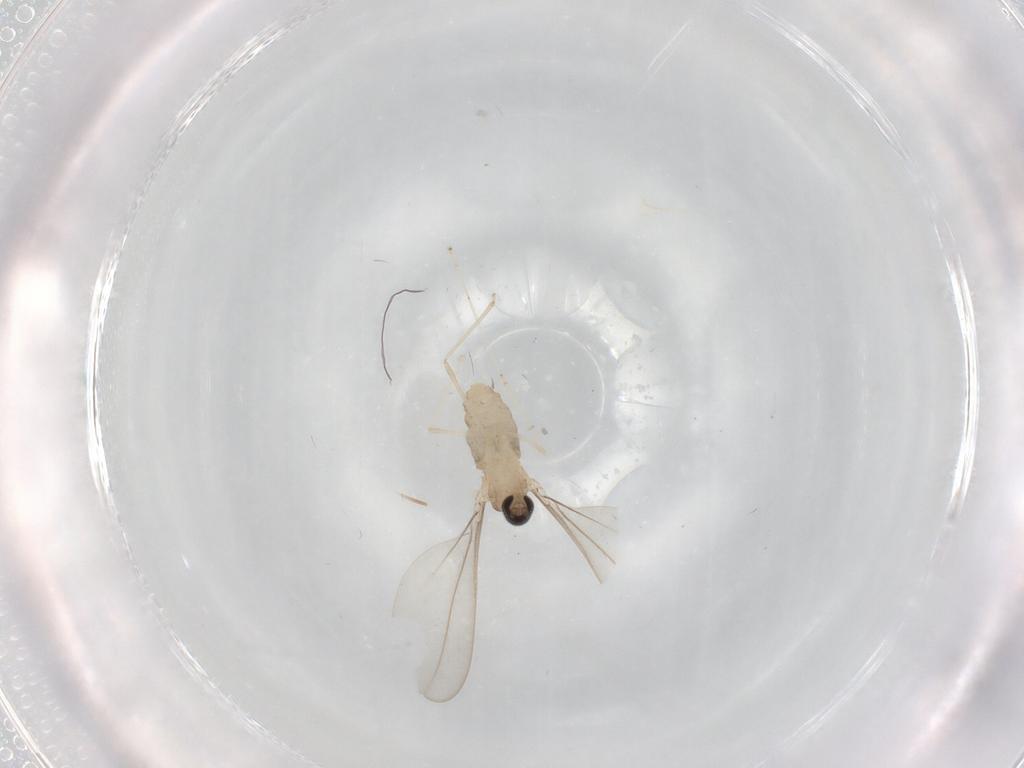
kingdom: Animalia
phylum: Arthropoda
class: Insecta
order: Diptera
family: Cecidomyiidae
